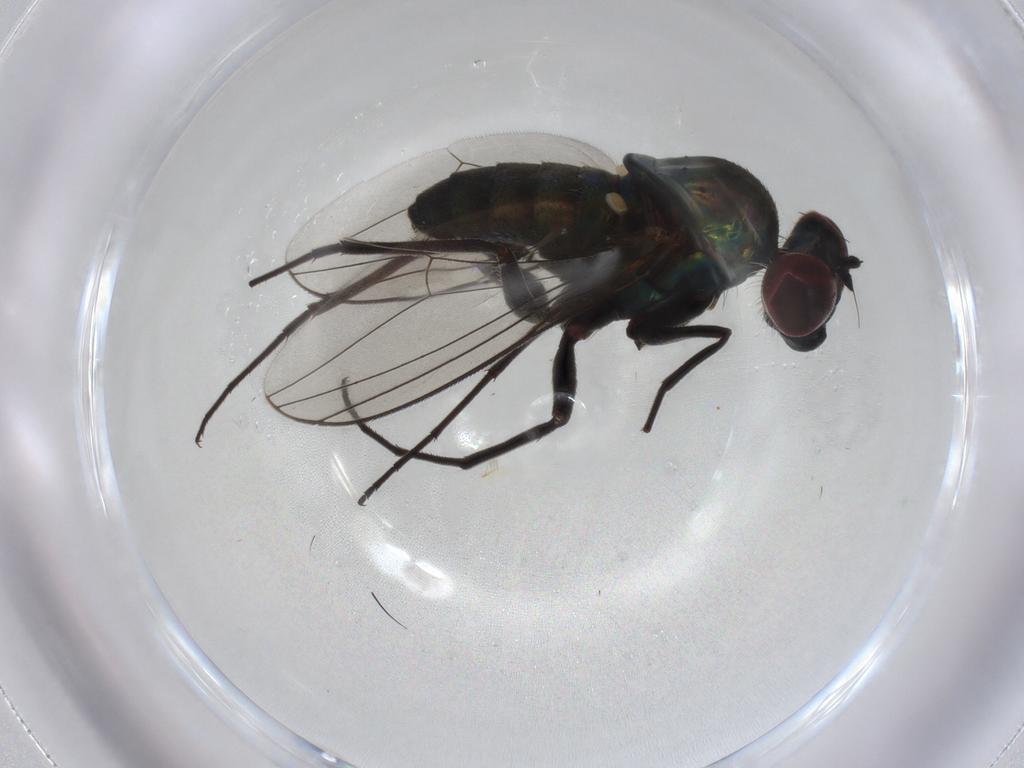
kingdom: Animalia
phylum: Arthropoda
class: Insecta
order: Diptera
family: Dolichopodidae
